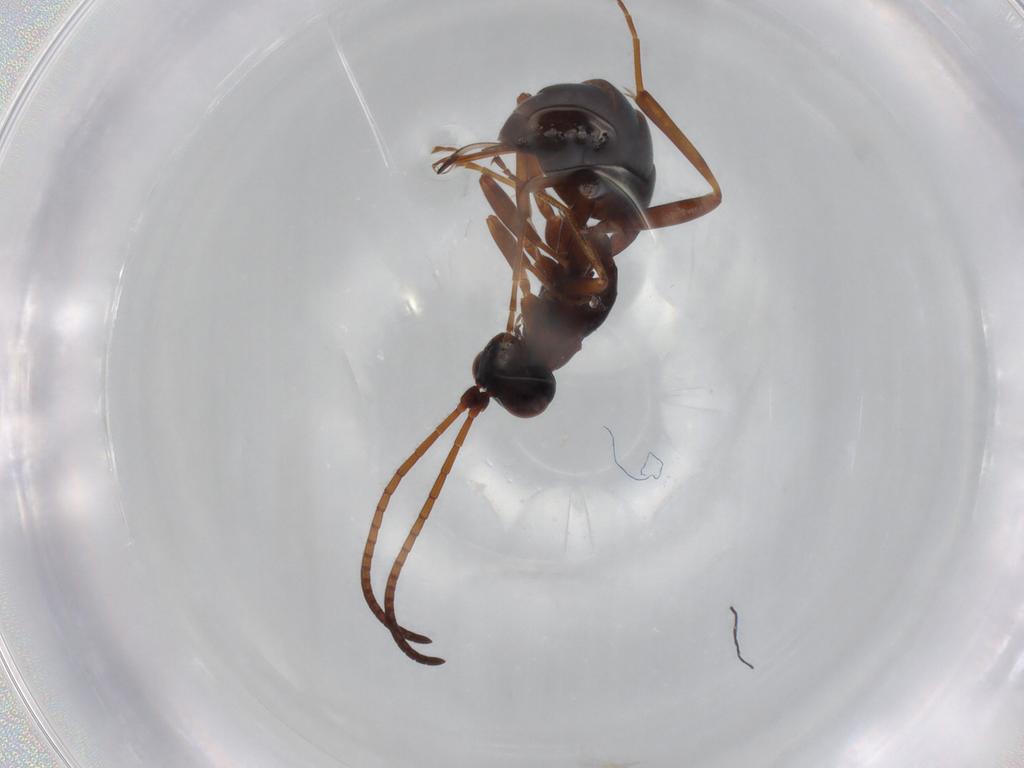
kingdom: Animalia
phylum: Arthropoda
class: Insecta
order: Hymenoptera
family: Ichneumonidae
